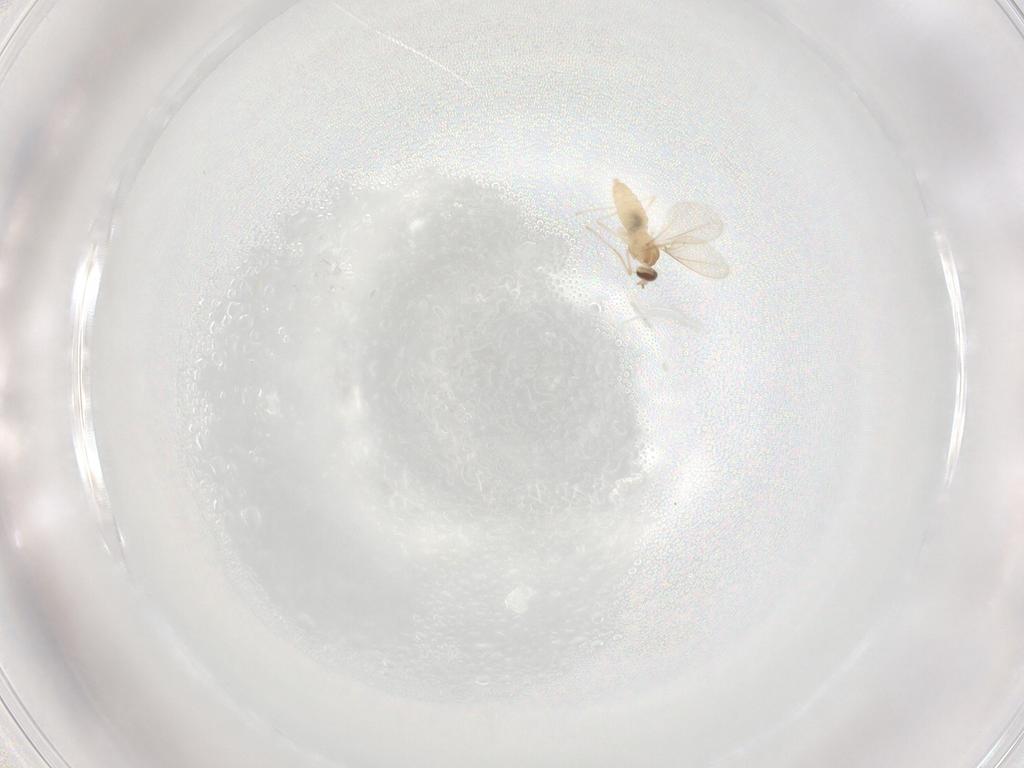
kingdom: Animalia
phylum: Arthropoda
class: Insecta
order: Diptera
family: Cecidomyiidae
